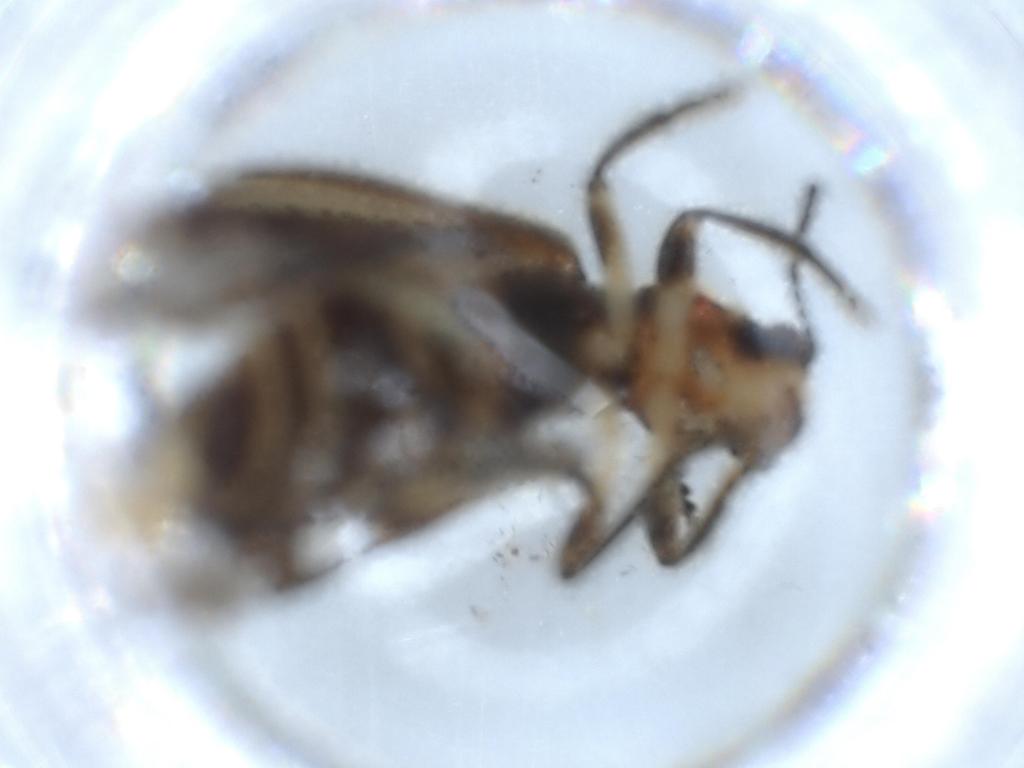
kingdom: Animalia
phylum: Arthropoda
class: Insecta
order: Coleoptera
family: Cleridae
